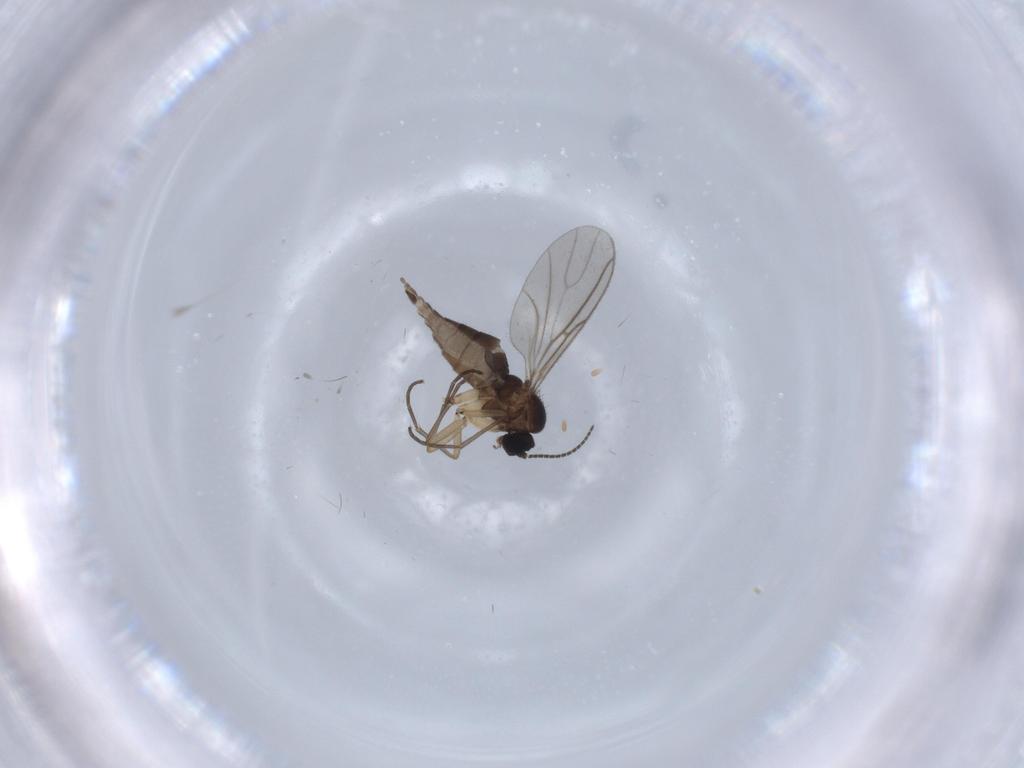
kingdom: Animalia
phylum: Arthropoda
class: Insecta
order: Diptera
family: Sciaridae
